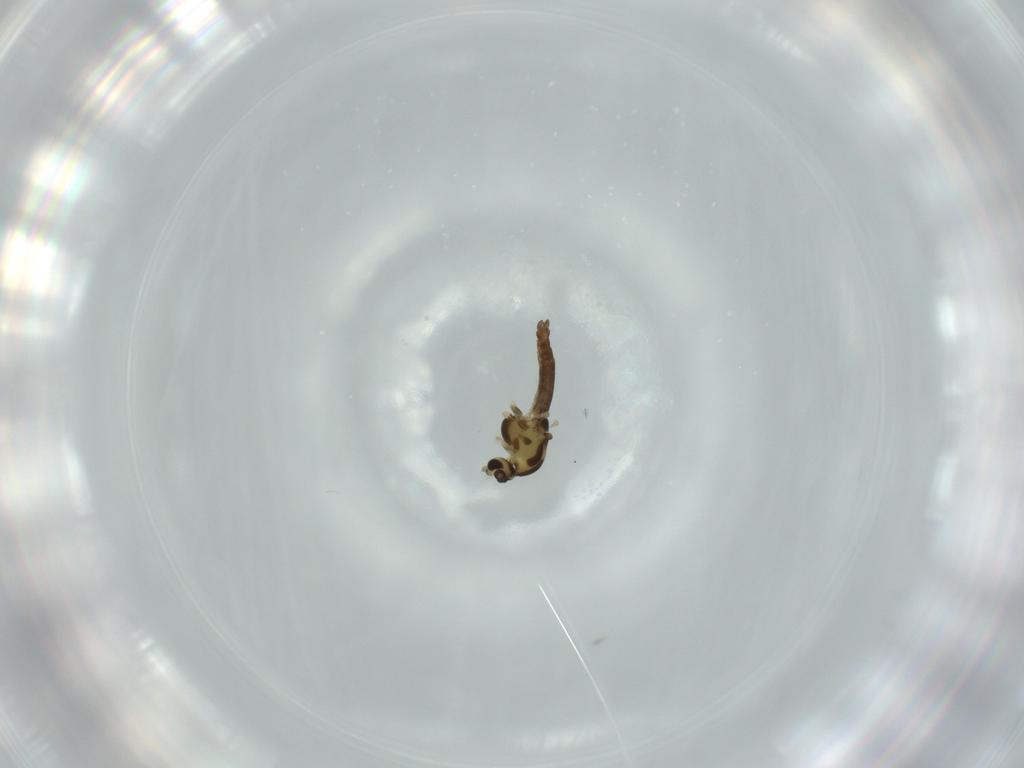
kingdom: Animalia
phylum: Arthropoda
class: Insecta
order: Diptera
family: Chironomidae
